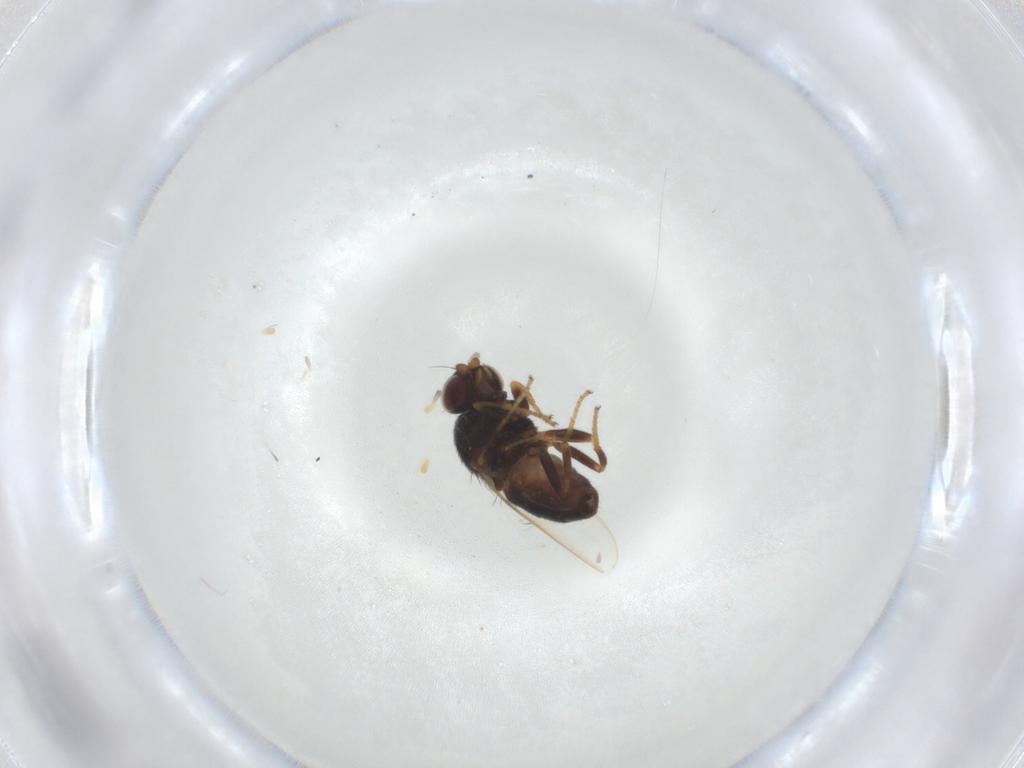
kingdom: Animalia
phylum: Arthropoda
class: Insecta
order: Diptera
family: Chloropidae
